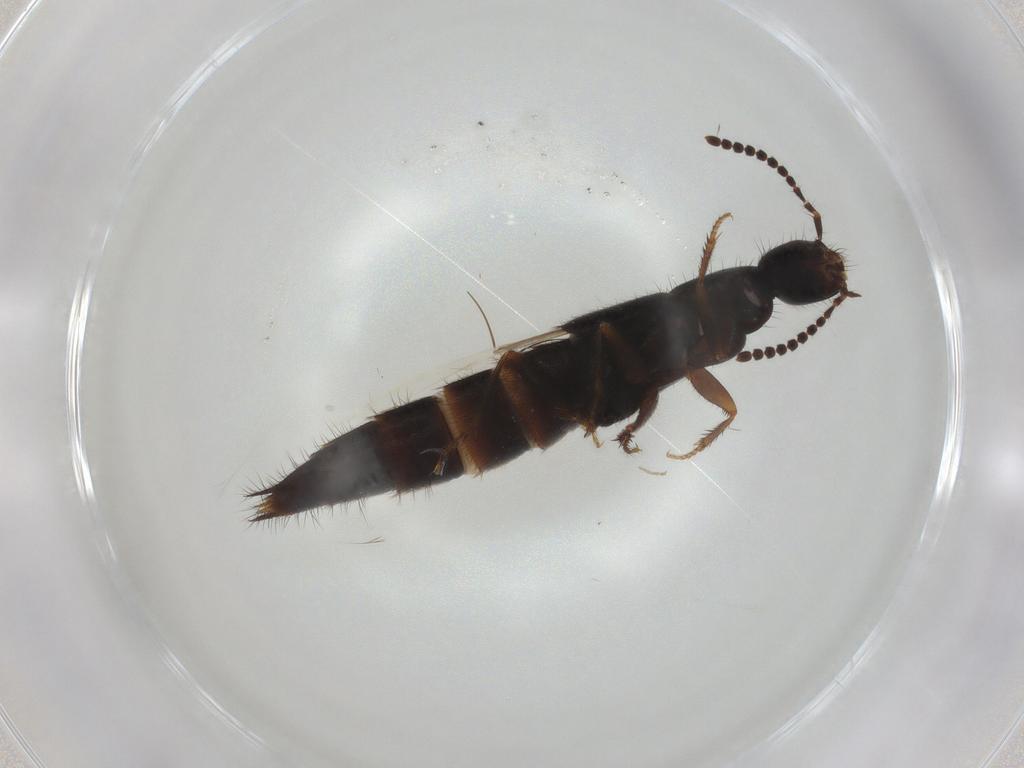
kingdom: Animalia
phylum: Arthropoda
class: Insecta
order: Coleoptera
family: Staphylinidae
